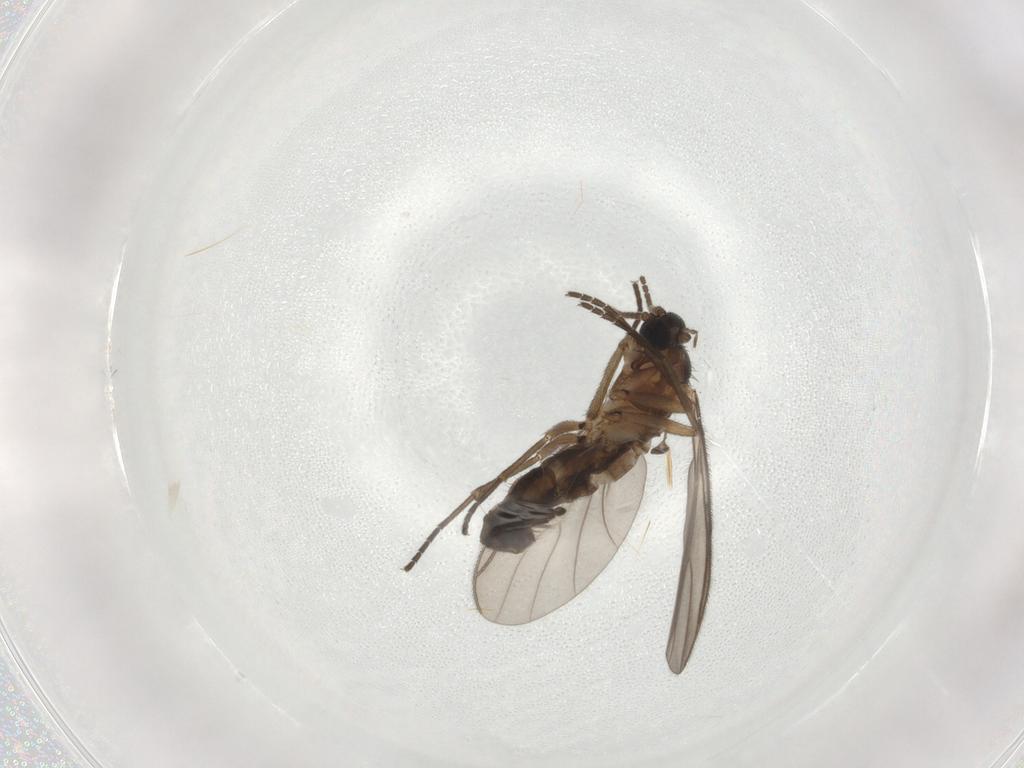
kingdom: Animalia
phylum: Arthropoda
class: Insecta
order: Diptera
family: Sciaridae
